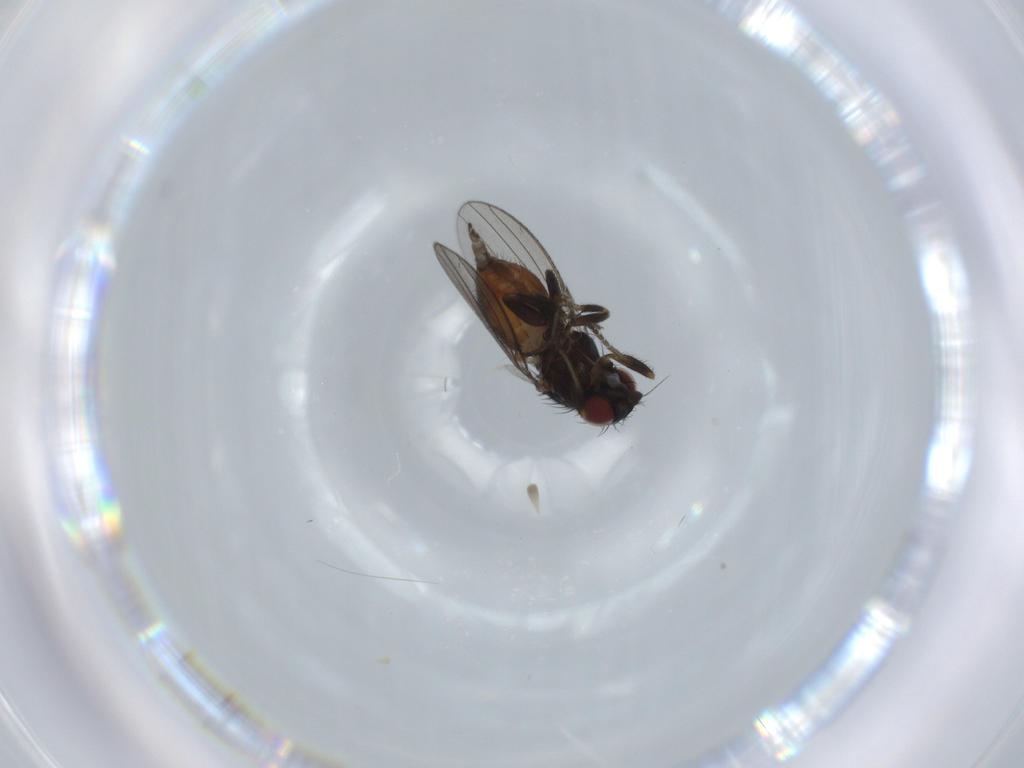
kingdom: Animalia
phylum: Arthropoda
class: Insecta
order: Diptera
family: Milichiidae
